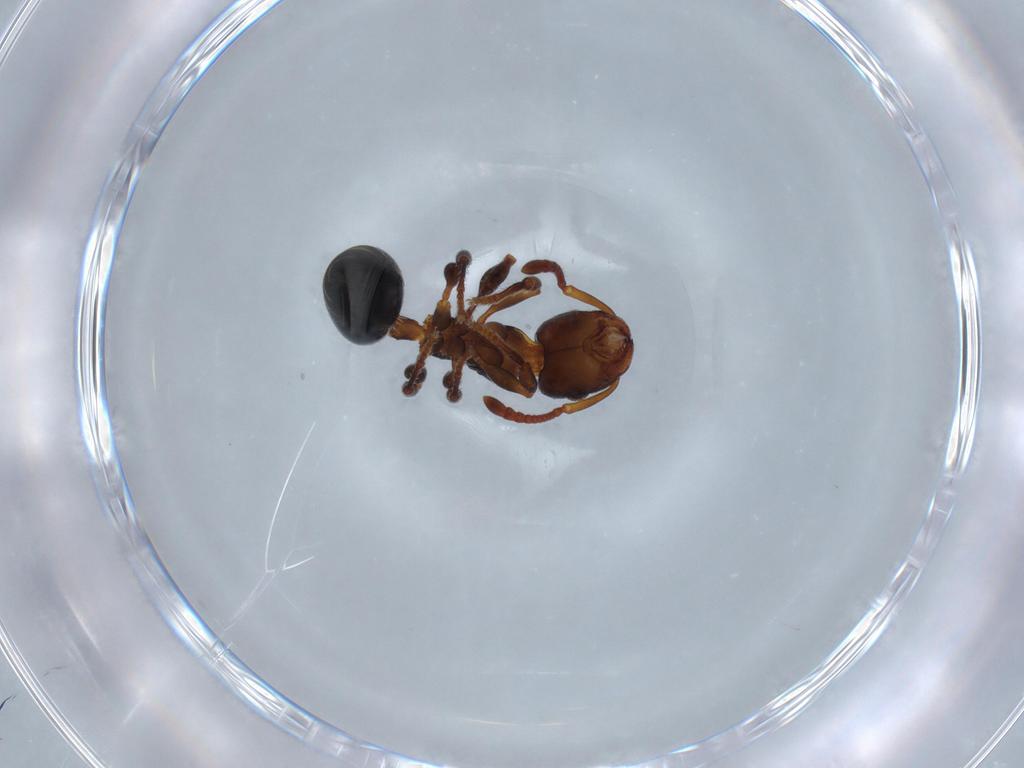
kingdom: Animalia
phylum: Arthropoda
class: Insecta
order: Hymenoptera
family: Formicidae
